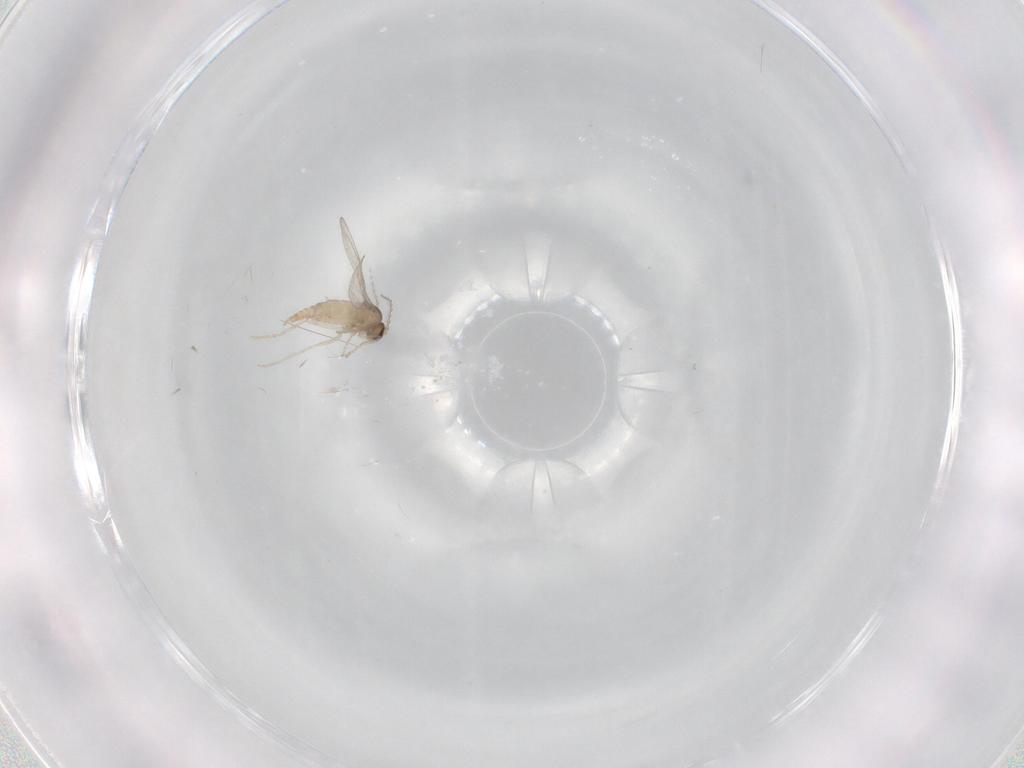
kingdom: Animalia
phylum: Arthropoda
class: Insecta
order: Diptera
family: Cecidomyiidae
